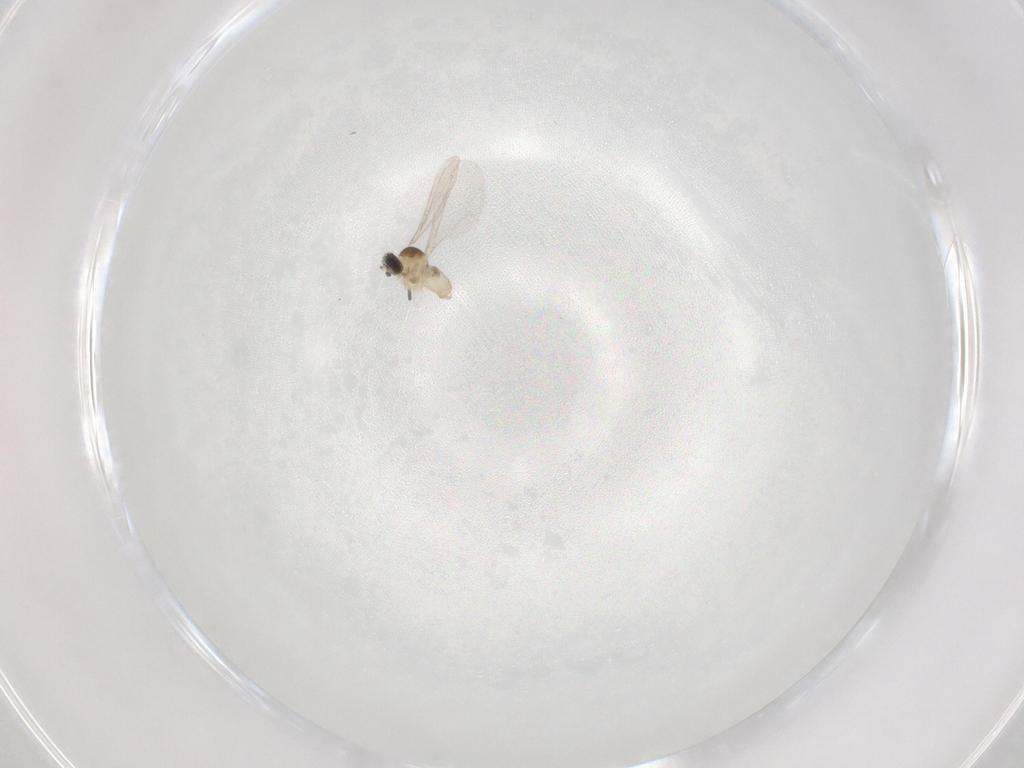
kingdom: Animalia
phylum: Arthropoda
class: Insecta
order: Diptera
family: Cecidomyiidae
